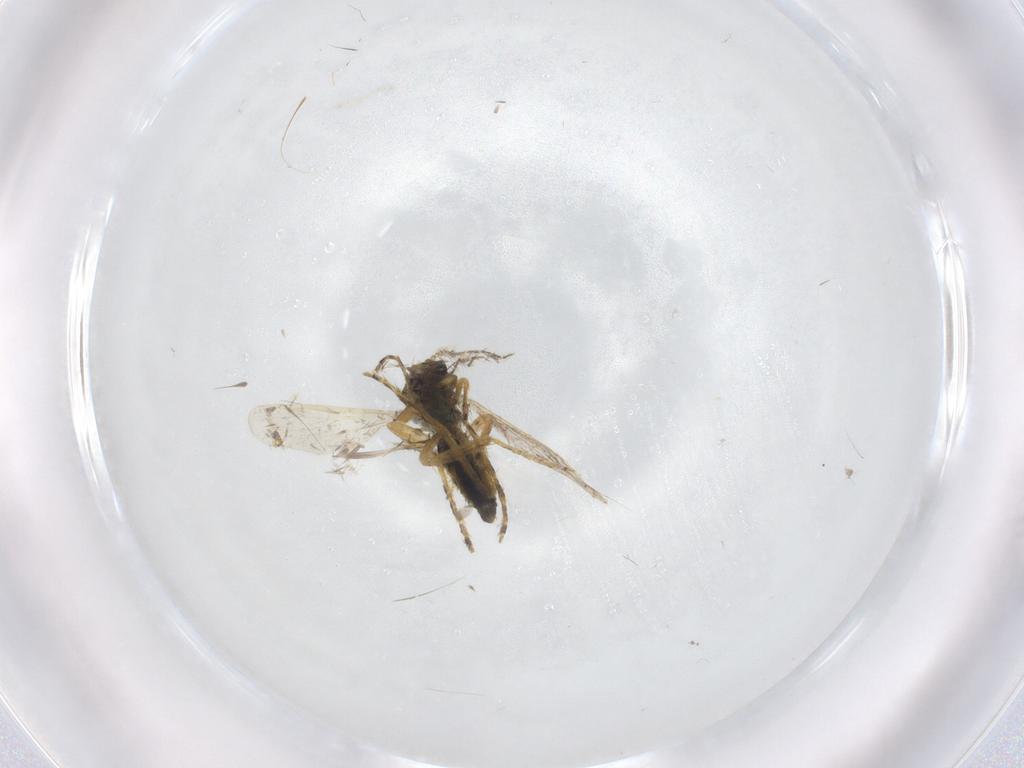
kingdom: Animalia
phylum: Arthropoda
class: Insecta
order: Diptera
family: Ceratopogonidae
